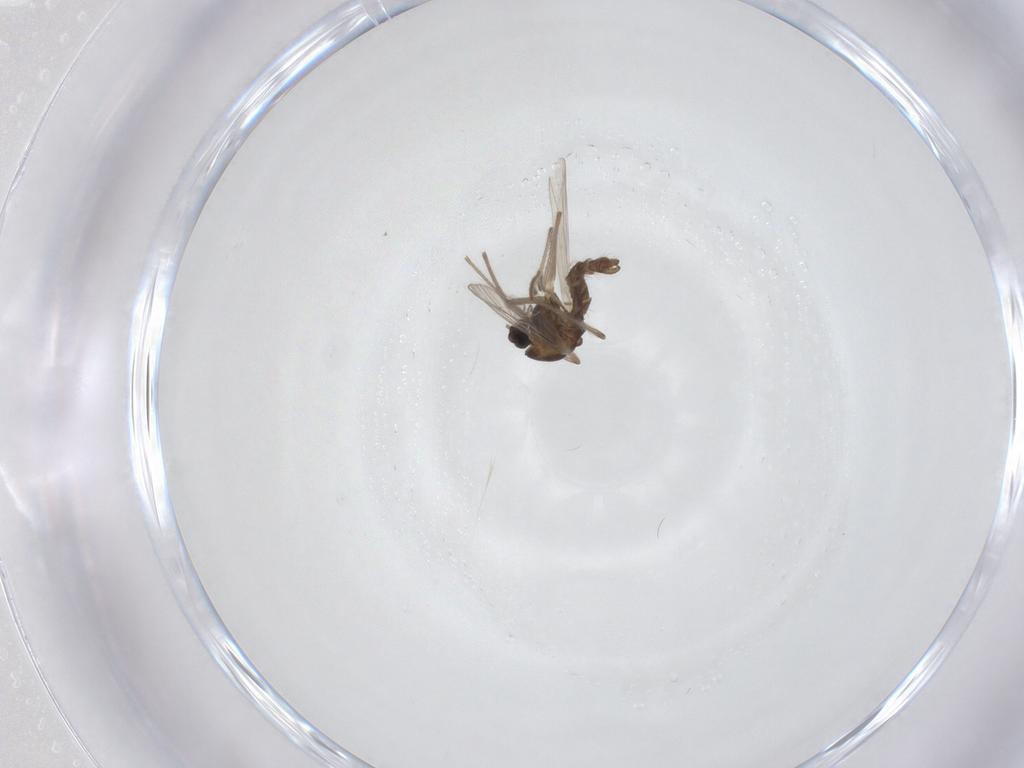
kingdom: Animalia
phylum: Arthropoda
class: Insecta
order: Diptera
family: Chironomidae
